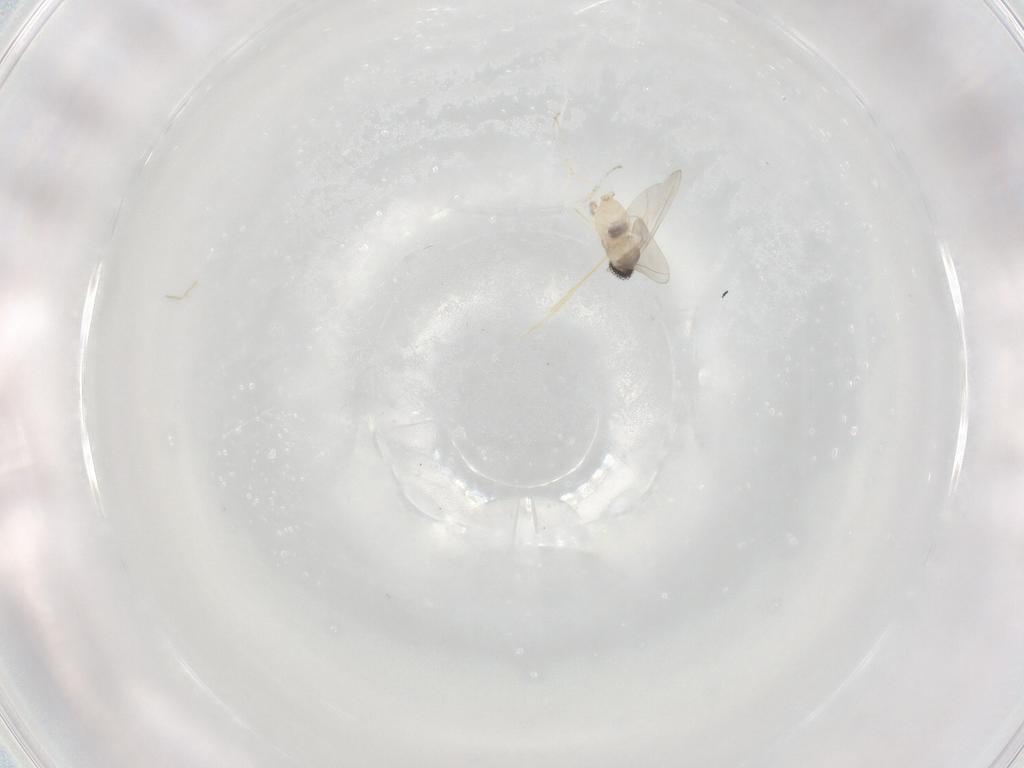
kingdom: Animalia
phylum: Arthropoda
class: Insecta
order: Diptera
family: Cecidomyiidae
